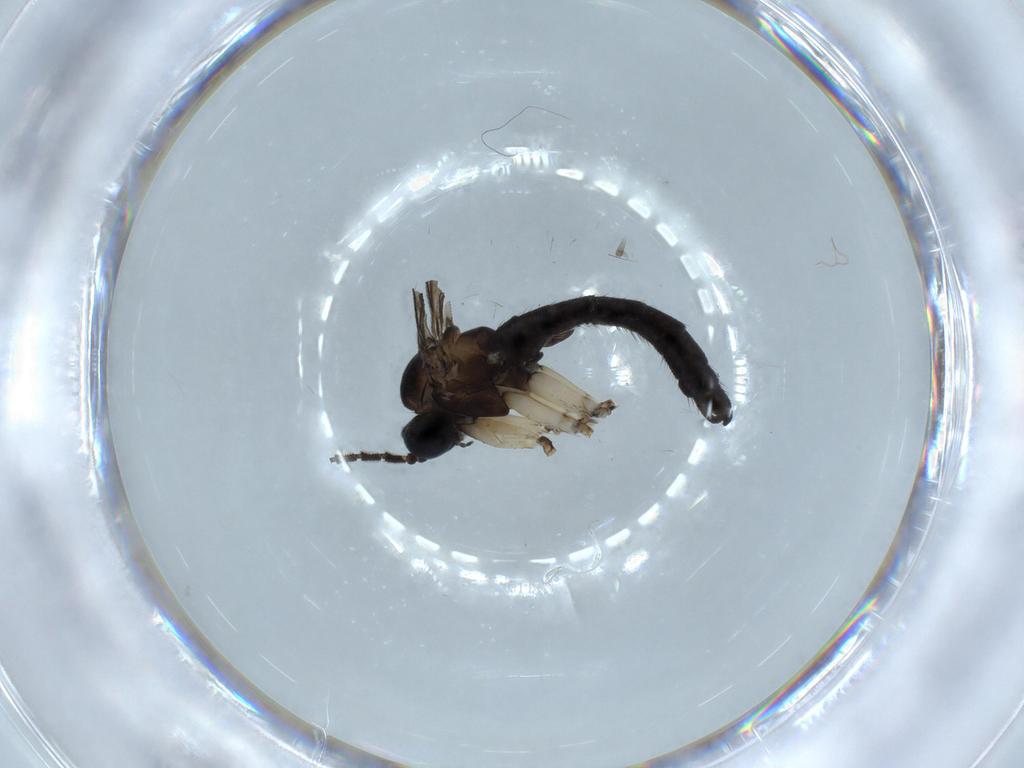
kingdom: Animalia
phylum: Arthropoda
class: Insecta
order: Diptera
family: Sciaridae
